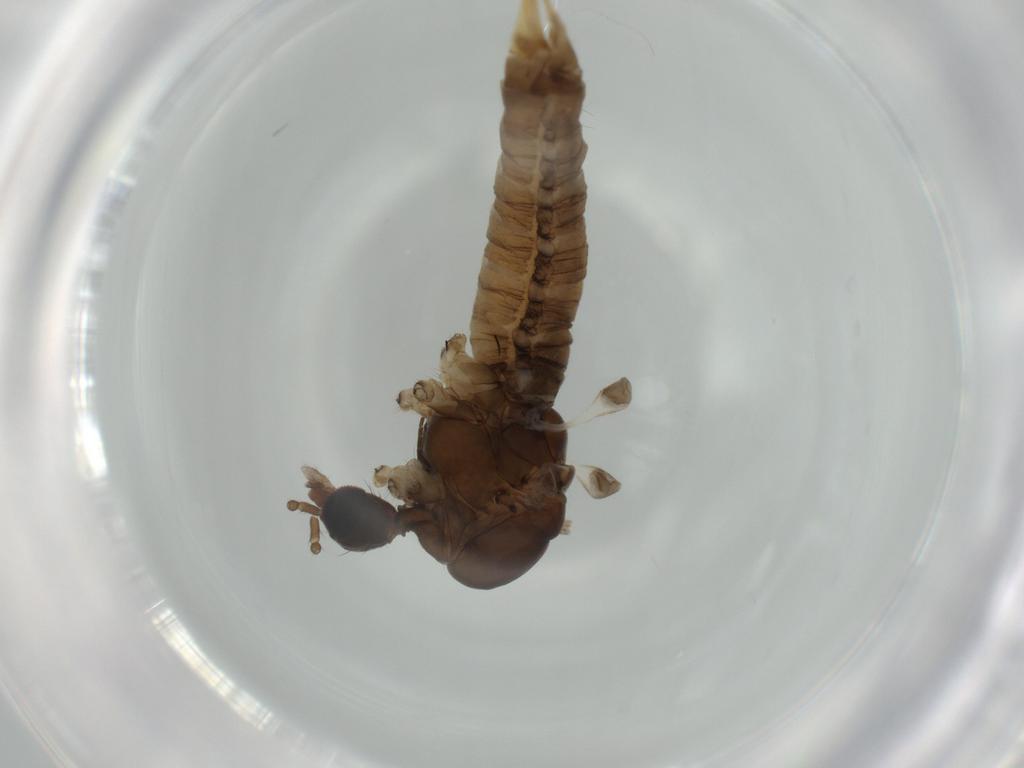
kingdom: Animalia
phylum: Arthropoda
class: Insecta
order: Diptera
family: Limoniidae
